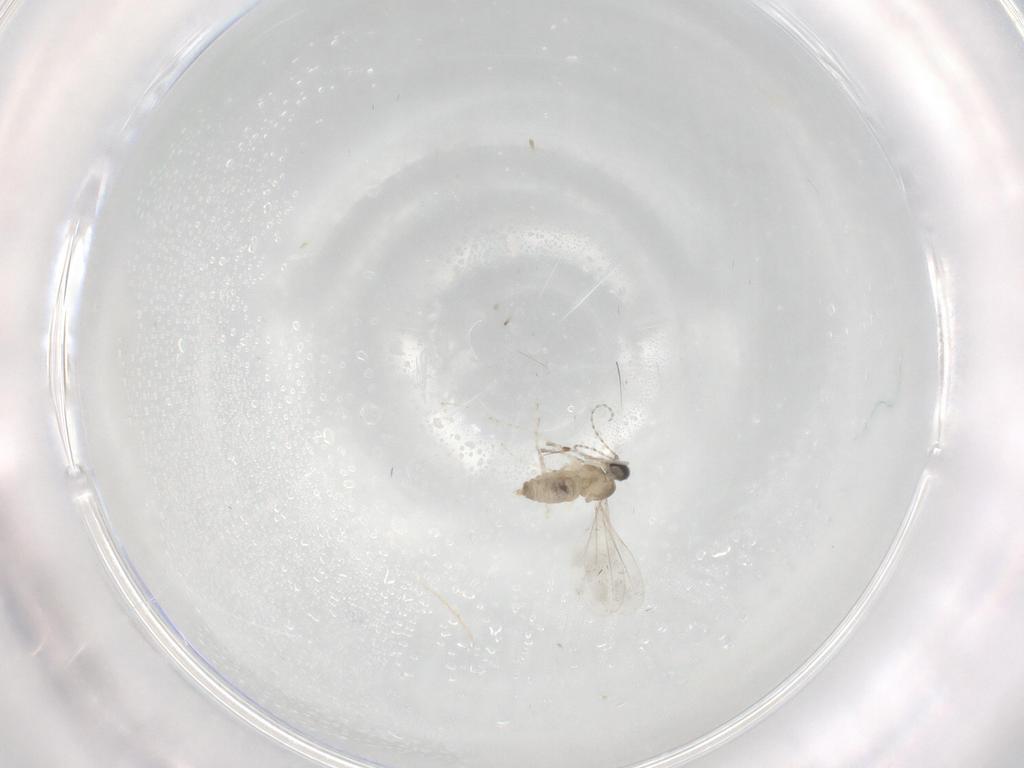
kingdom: Animalia
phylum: Arthropoda
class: Insecta
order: Diptera
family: Cecidomyiidae
